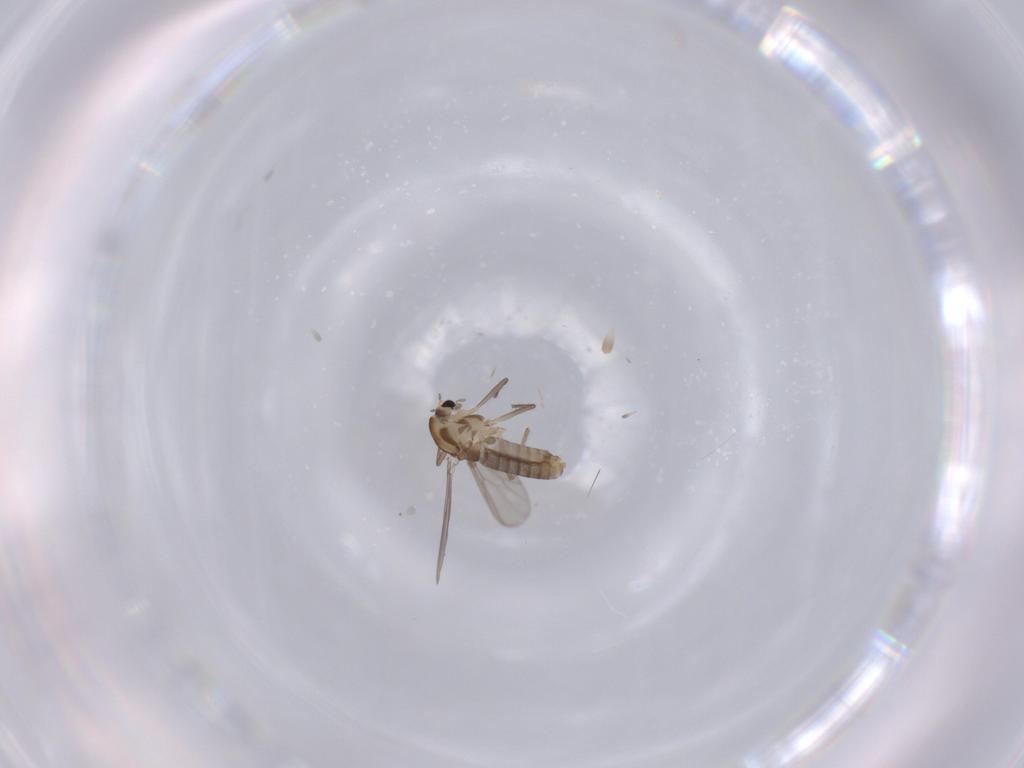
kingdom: Animalia
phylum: Arthropoda
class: Insecta
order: Diptera
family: Chironomidae
